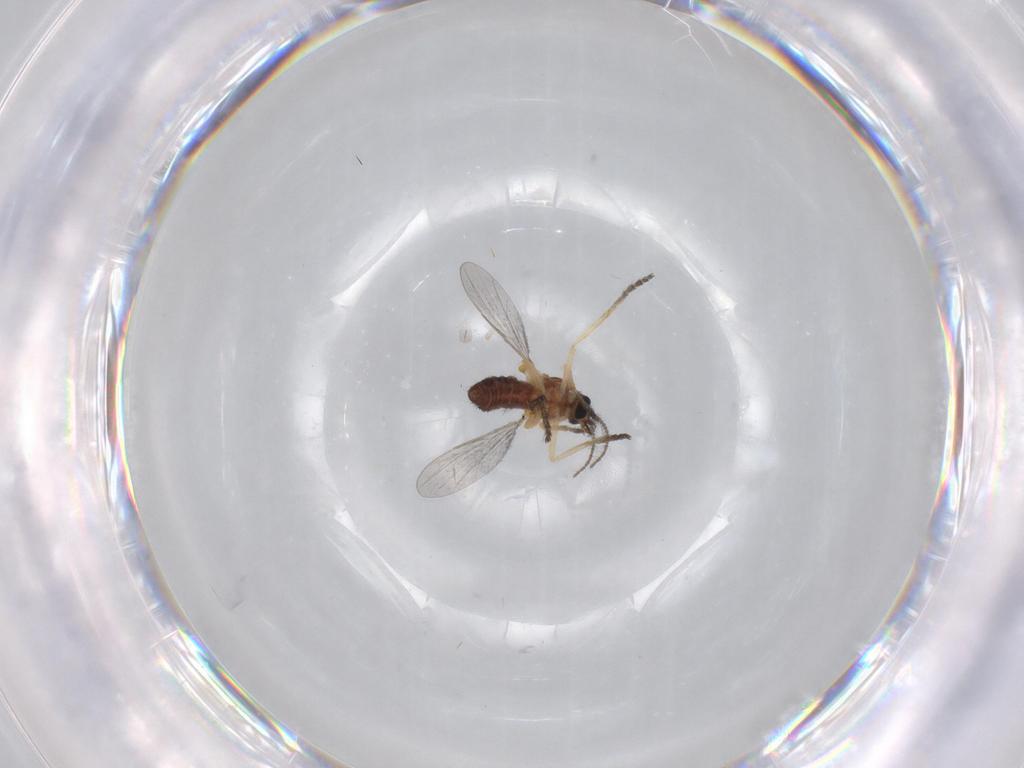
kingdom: Animalia
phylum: Arthropoda
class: Insecta
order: Diptera
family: Ceratopogonidae
